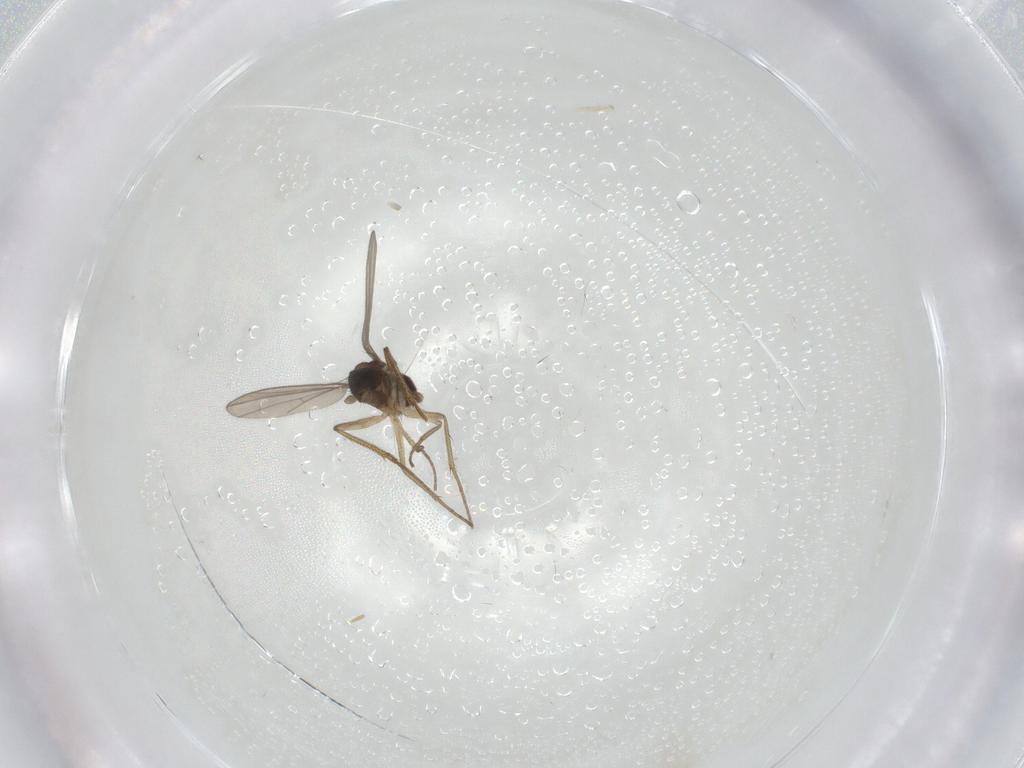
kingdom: Animalia
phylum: Arthropoda
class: Insecta
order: Diptera
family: Dolichopodidae
